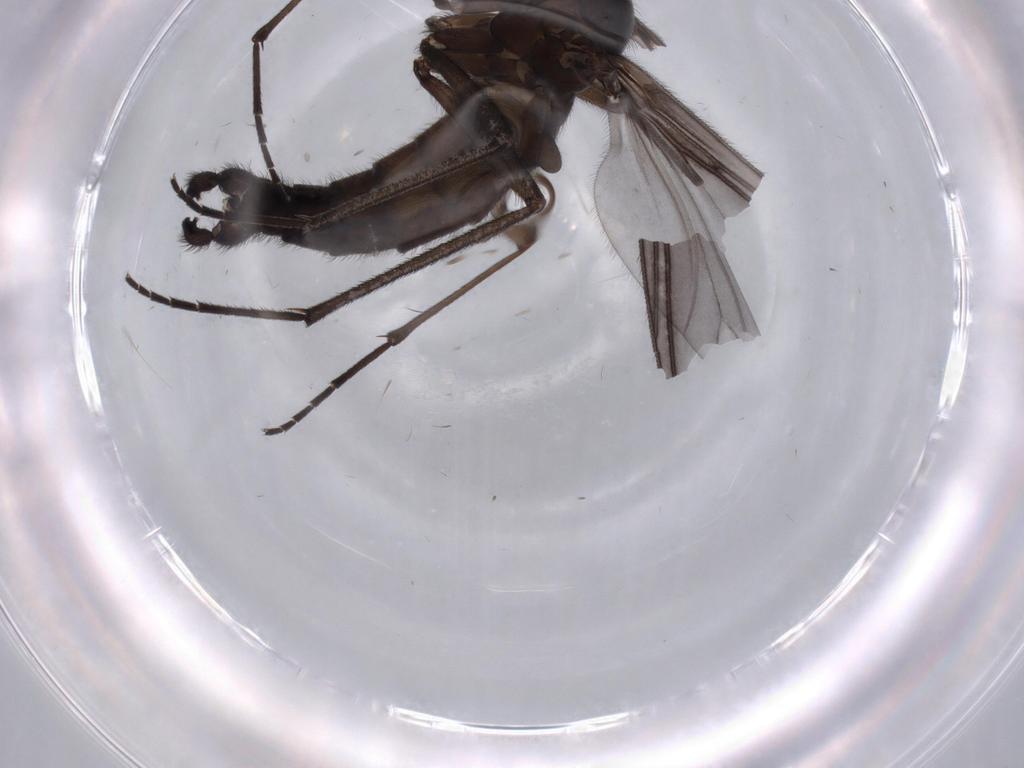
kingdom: Animalia
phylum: Arthropoda
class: Insecta
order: Diptera
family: Chironomidae
